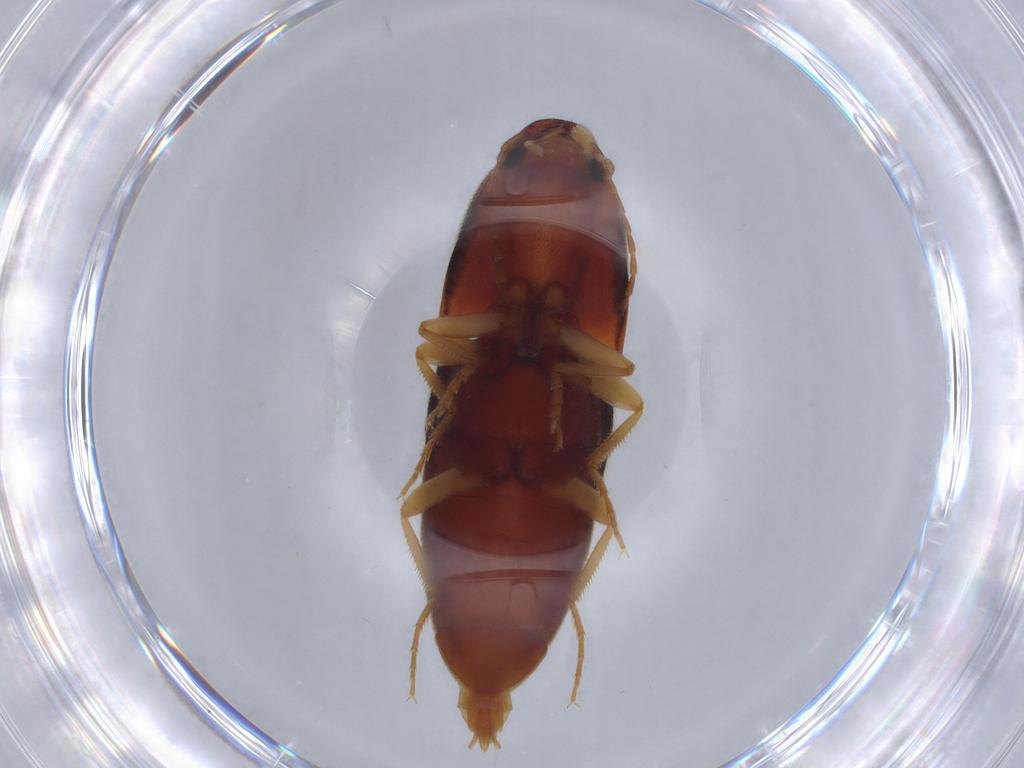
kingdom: Animalia
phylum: Arthropoda
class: Insecta
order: Coleoptera
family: Elateridae
